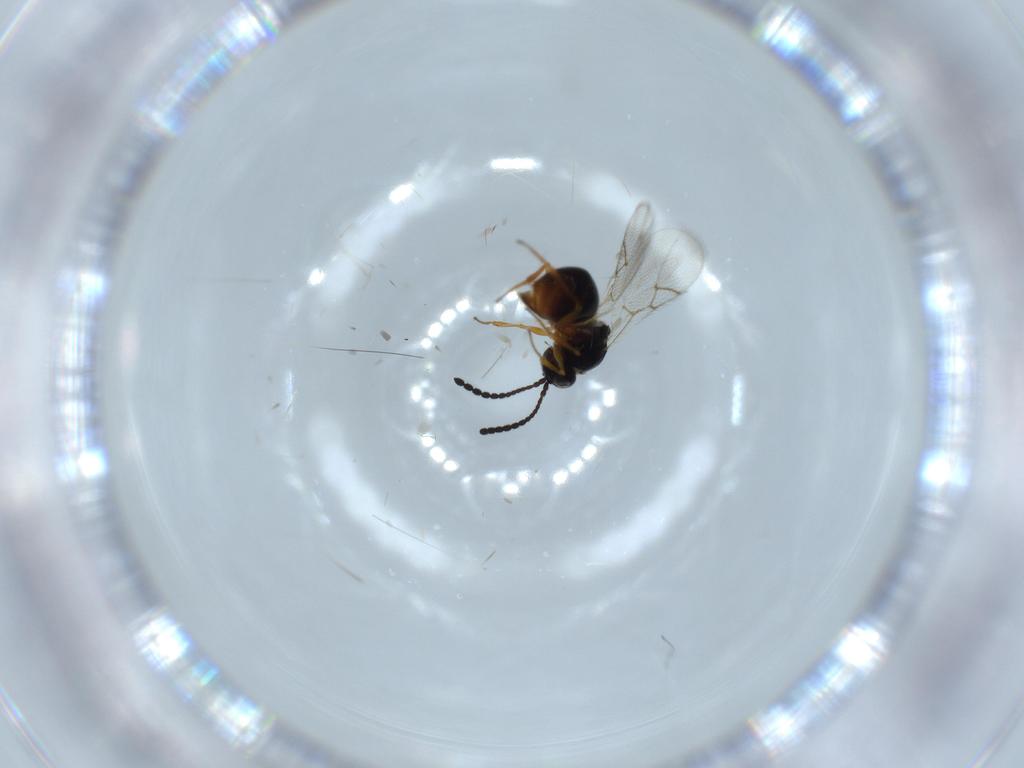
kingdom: Animalia
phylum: Arthropoda
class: Insecta
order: Hymenoptera
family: Figitidae
